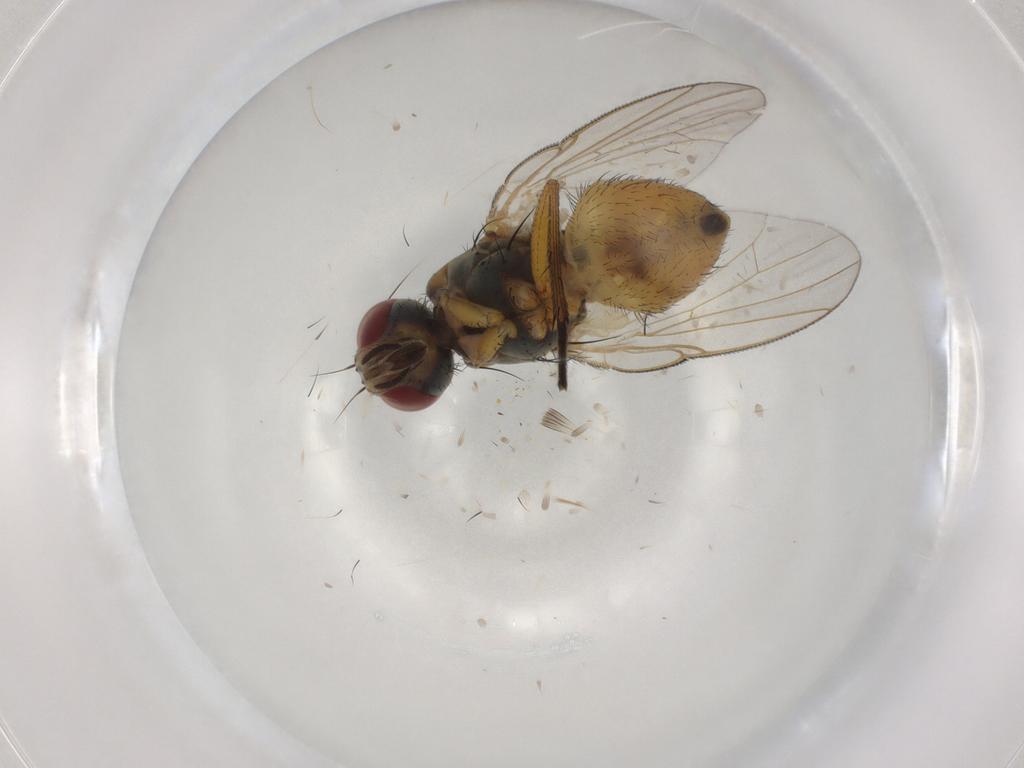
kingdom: Animalia
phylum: Arthropoda
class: Insecta
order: Diptera
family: Muscidae
